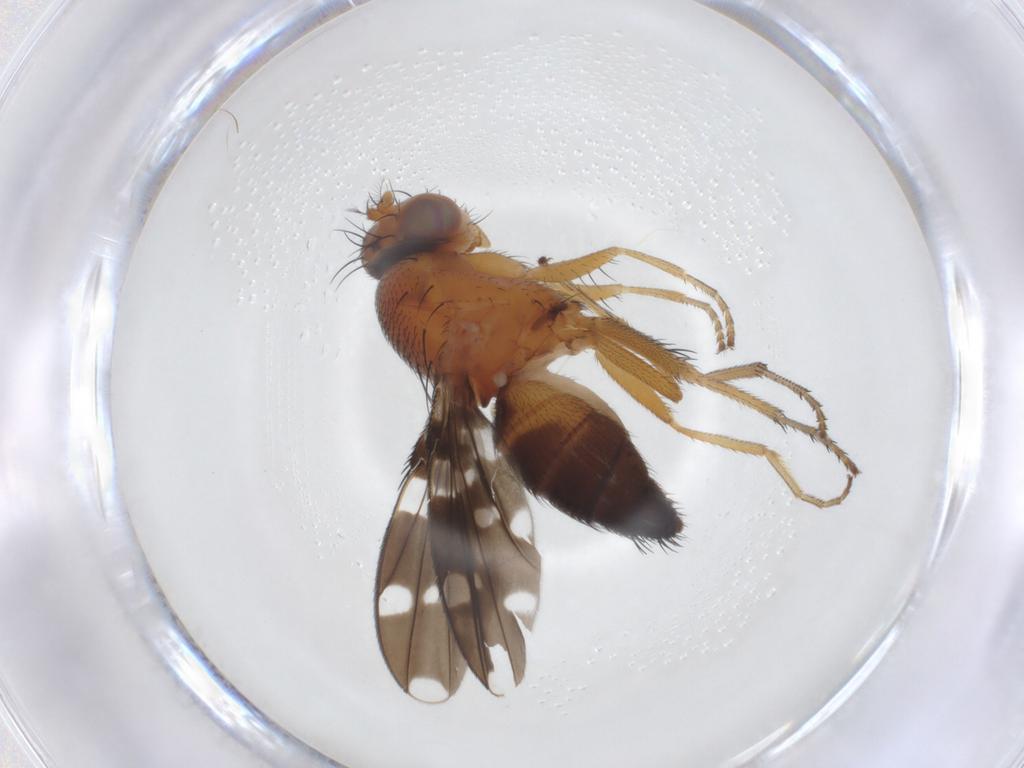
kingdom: Animalia
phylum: Arthropoda
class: Insecta
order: Diptera
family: Ephydridae
